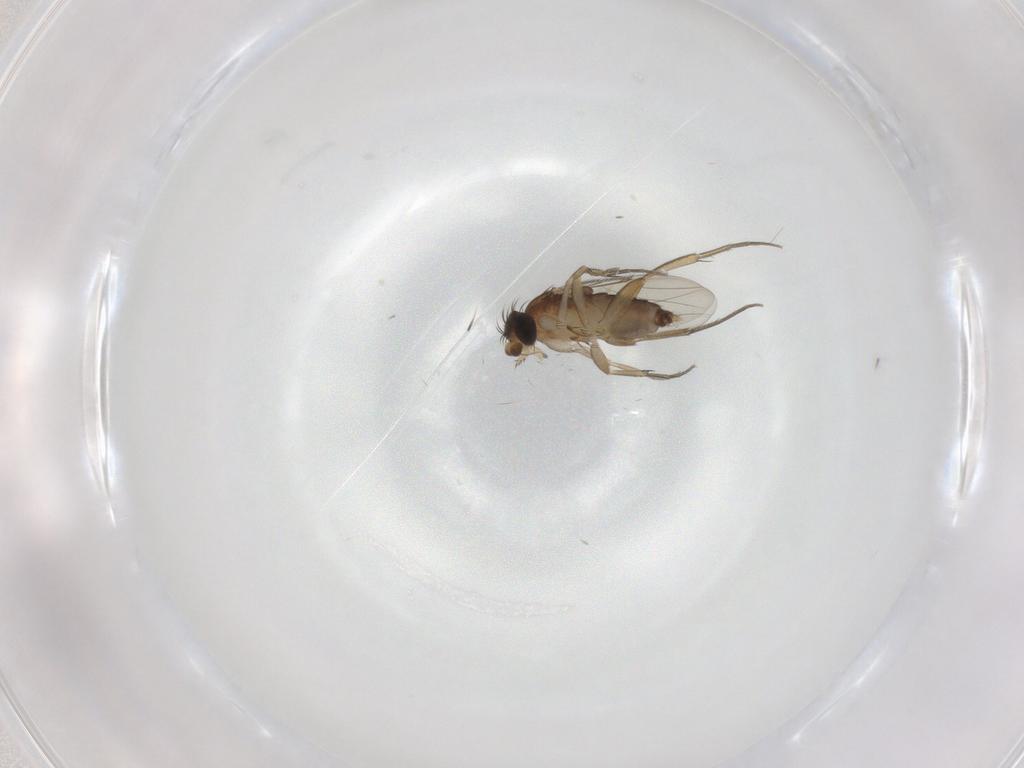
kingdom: Animalia
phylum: Arthropoda
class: Insecta
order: Diptera
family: Phoridae
